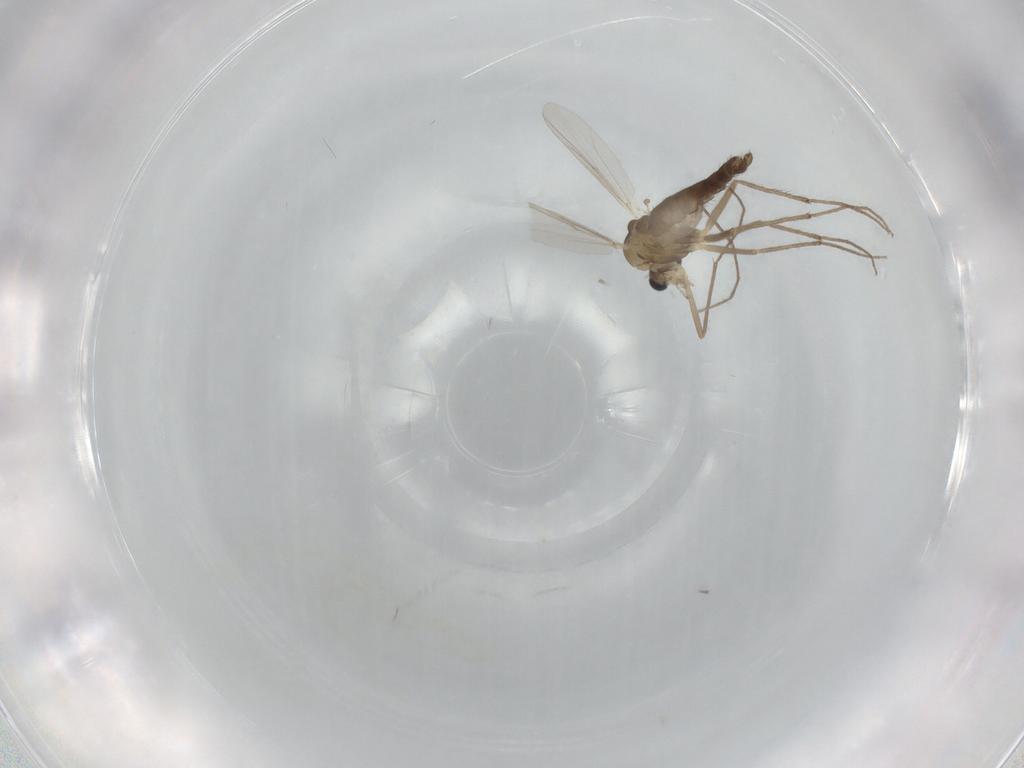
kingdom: Animalia
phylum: Arthropoda
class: Insecta
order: Diptera
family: Chironomidae
